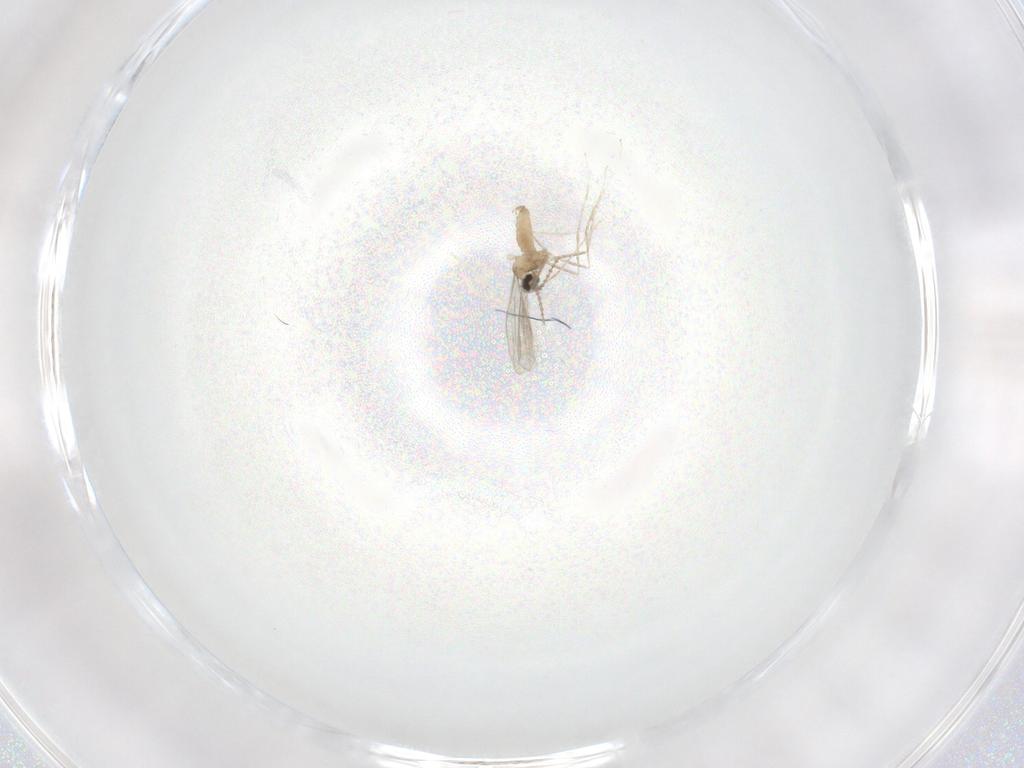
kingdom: Animalia
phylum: Arthropoda
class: Insecta
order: Diptera
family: Cecidomyiidae
